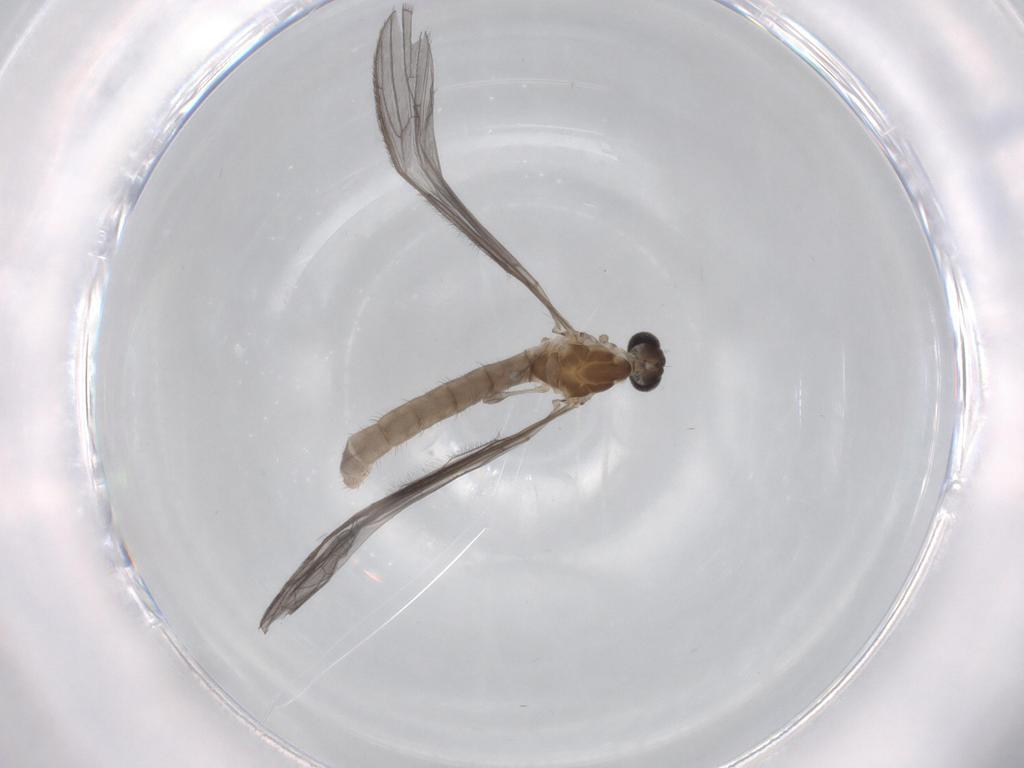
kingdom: Animalia
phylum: Arthropoda
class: Insecta
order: Diptera
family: Limoniidae
